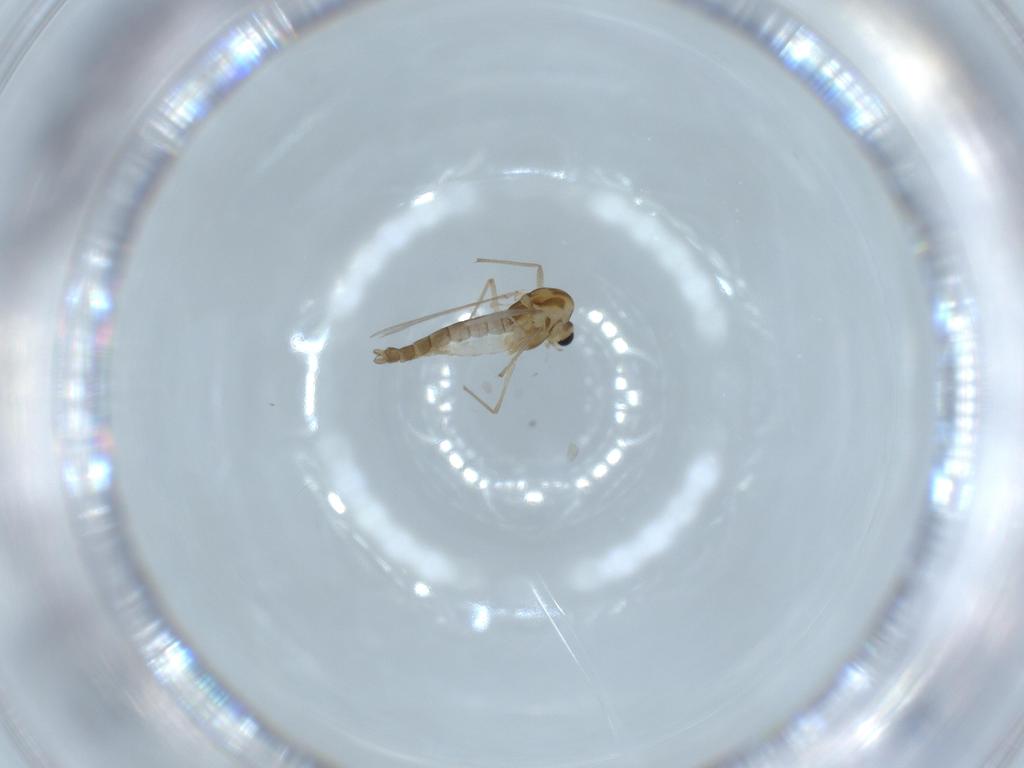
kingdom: Animalia
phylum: Arthropoda
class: Insecta
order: Diptera
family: Chironomidae
